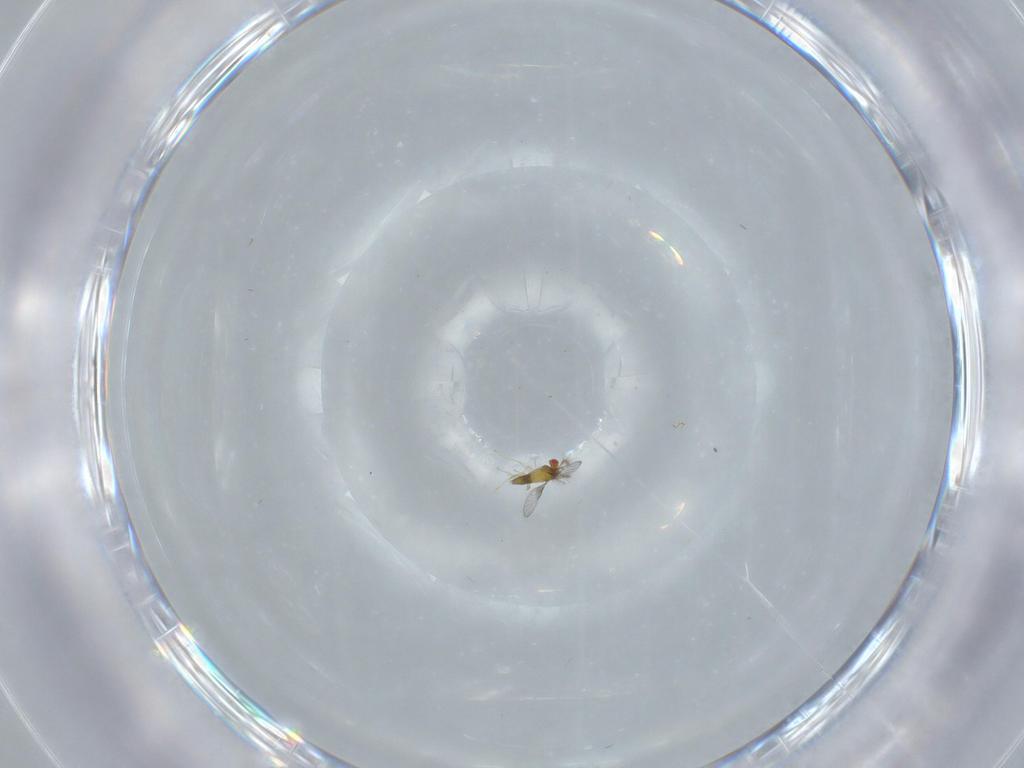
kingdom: Animalia
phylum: Arthropoda
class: Insecta
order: Hymenoptera
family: Trichogrammatidae
